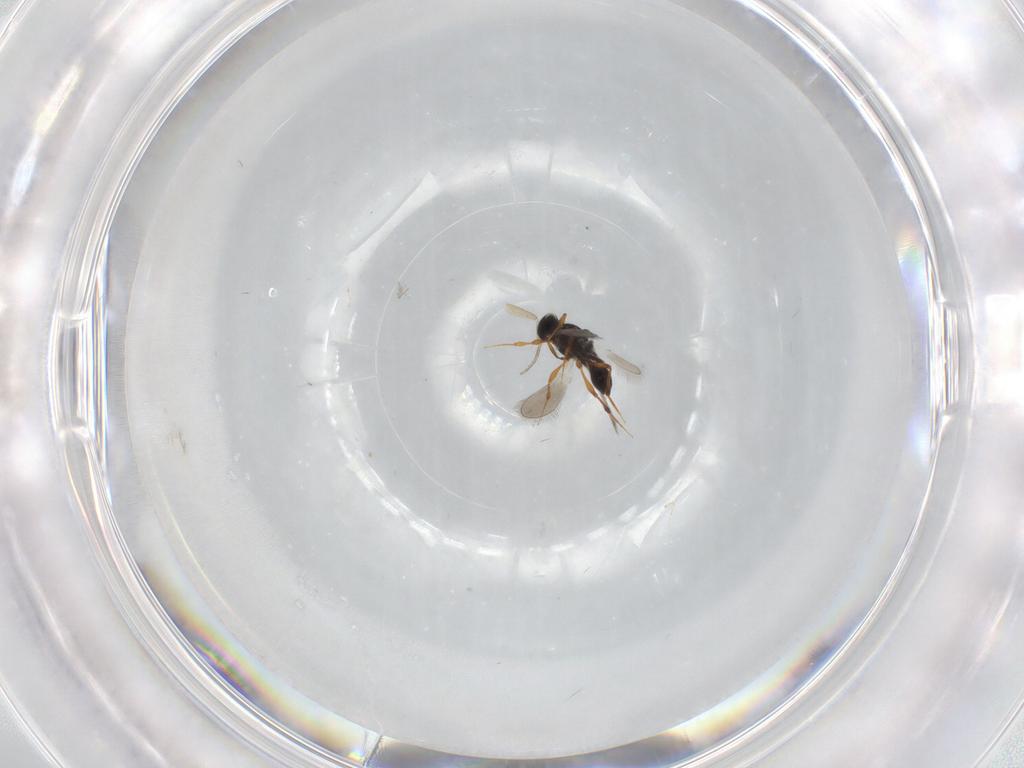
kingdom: Animalia
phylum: Arthropoda
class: Insecta
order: Hymenoptera
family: Platygastridae
